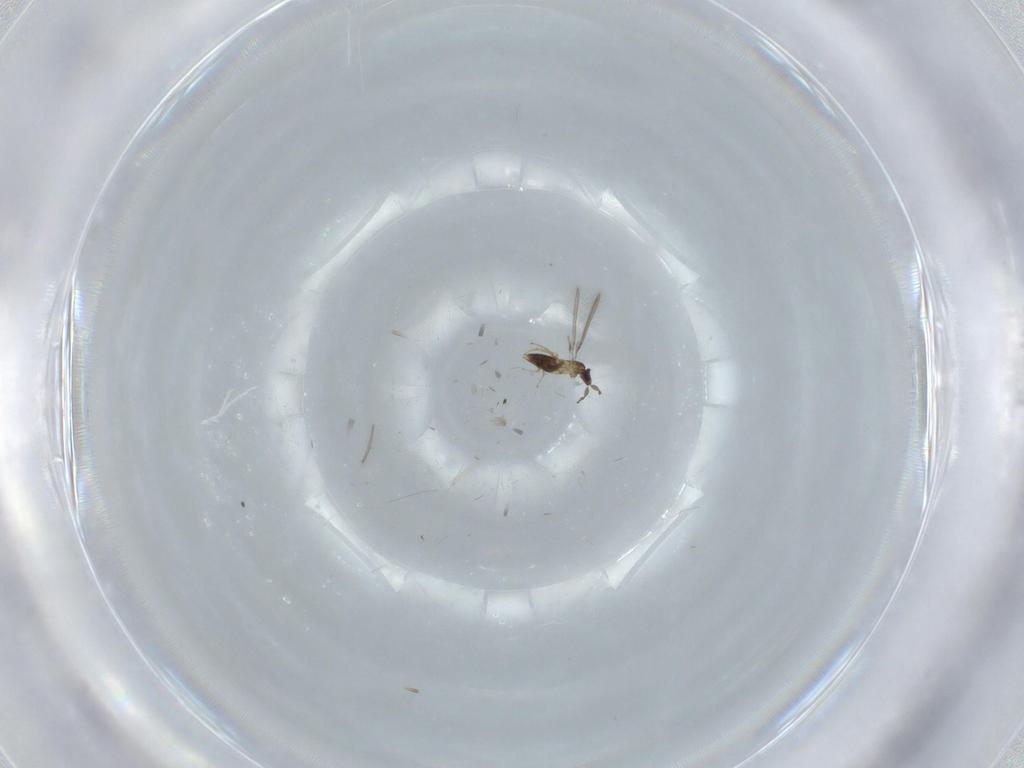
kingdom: Animalia
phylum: Arthropoda
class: Insecta
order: Hymenoptera
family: Mymaridae
